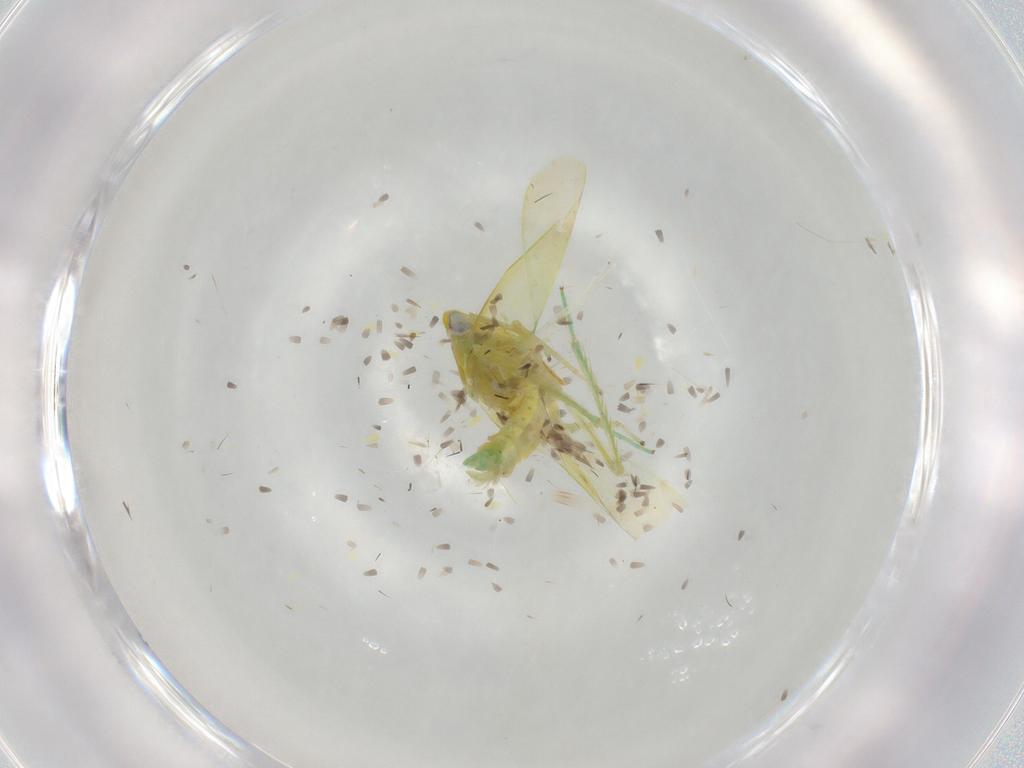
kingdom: Animalia
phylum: Arthropoda
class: Insecta
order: Hemiptera
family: Cicadellidae
